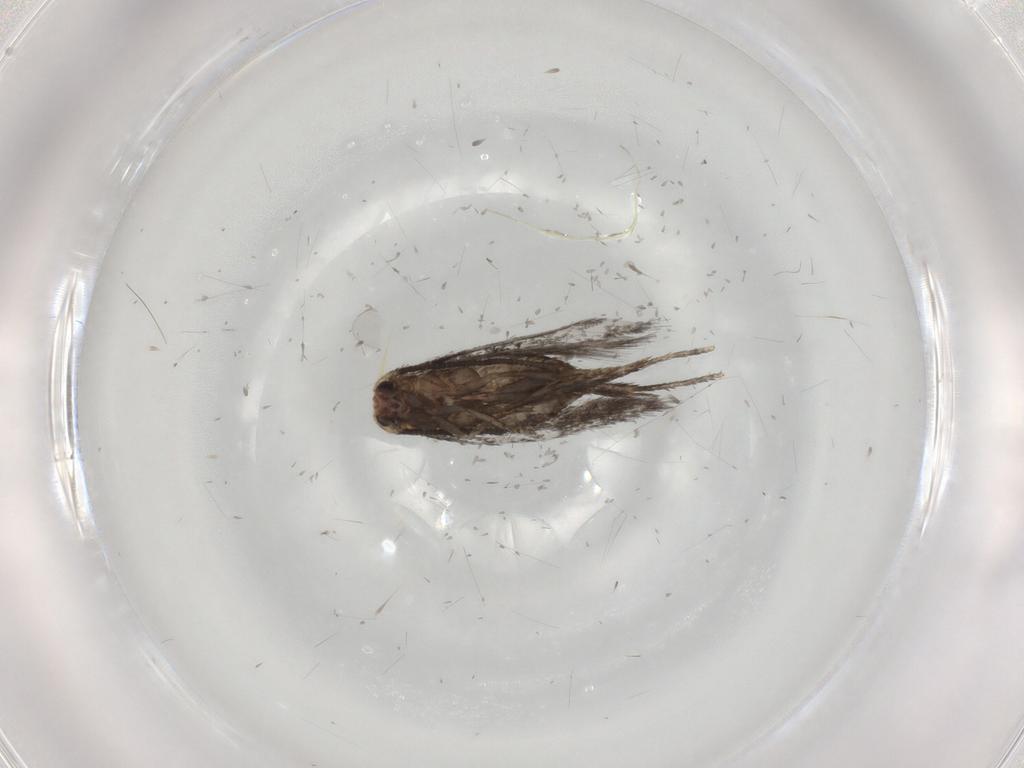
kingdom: Animalia
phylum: Arthropoda
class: Insecta
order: Lepidoptera
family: Nepticulidae
